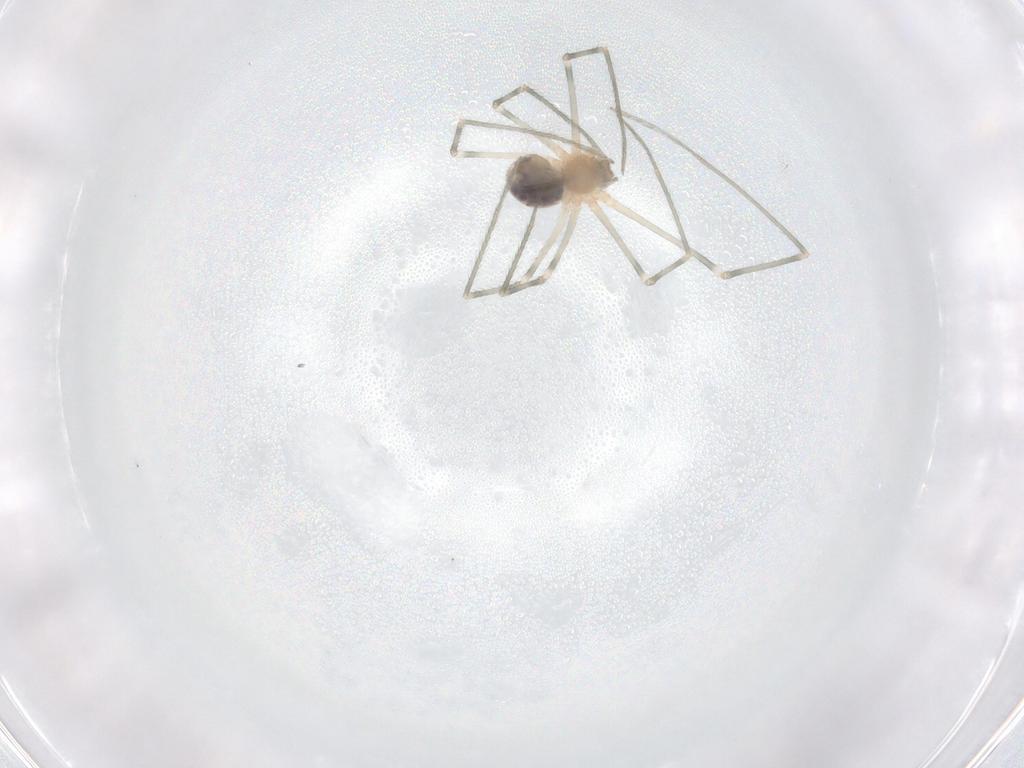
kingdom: Animalia
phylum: Arthropoda
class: Arachnida
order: Araneae
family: Pholcidae
